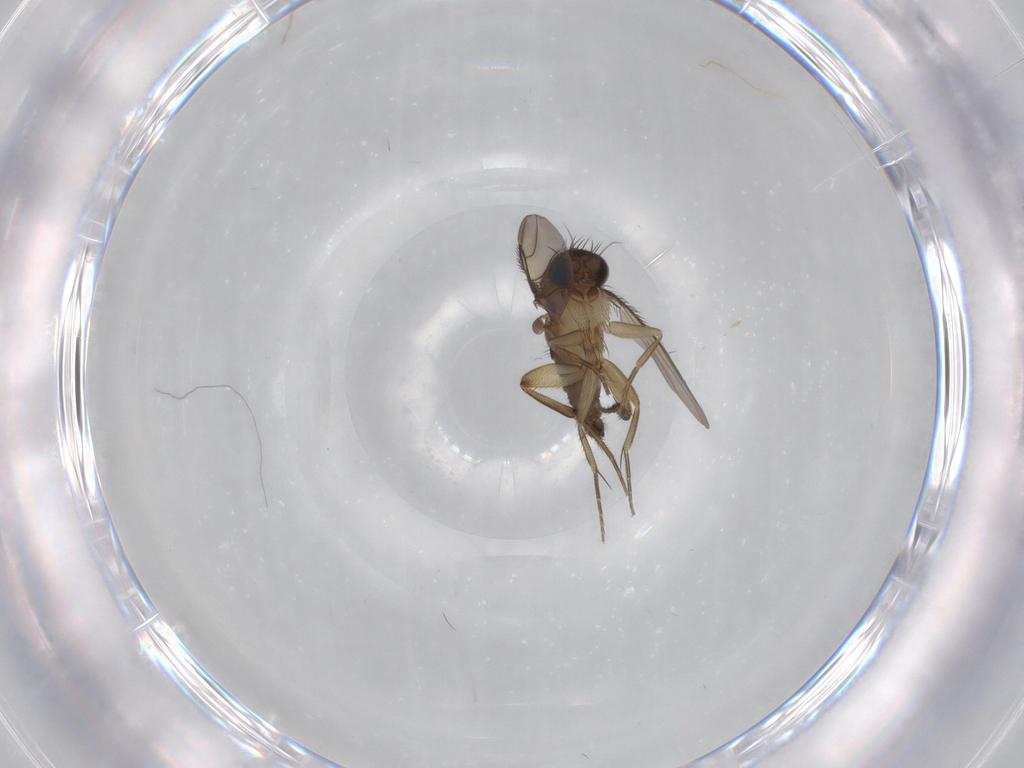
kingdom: Animalia
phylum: Arthropoda
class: Insecta
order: Diptera
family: Phoridae
